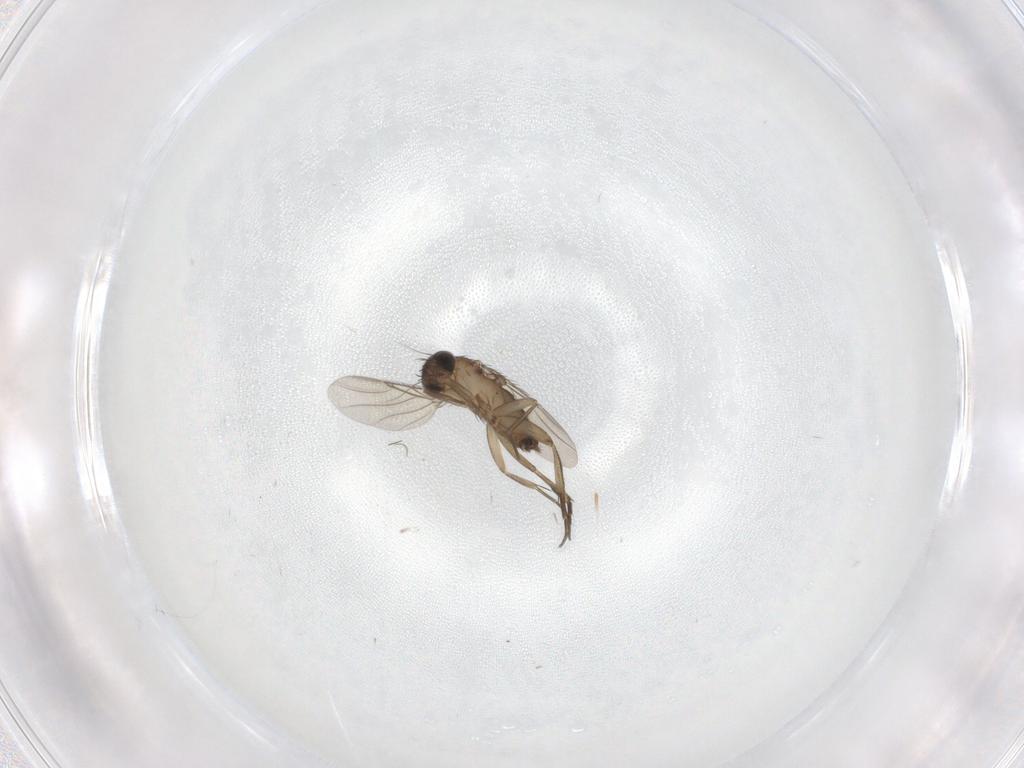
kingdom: Animalia
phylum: Arthropoda
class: Insecta
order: Diptera
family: Phoridae
